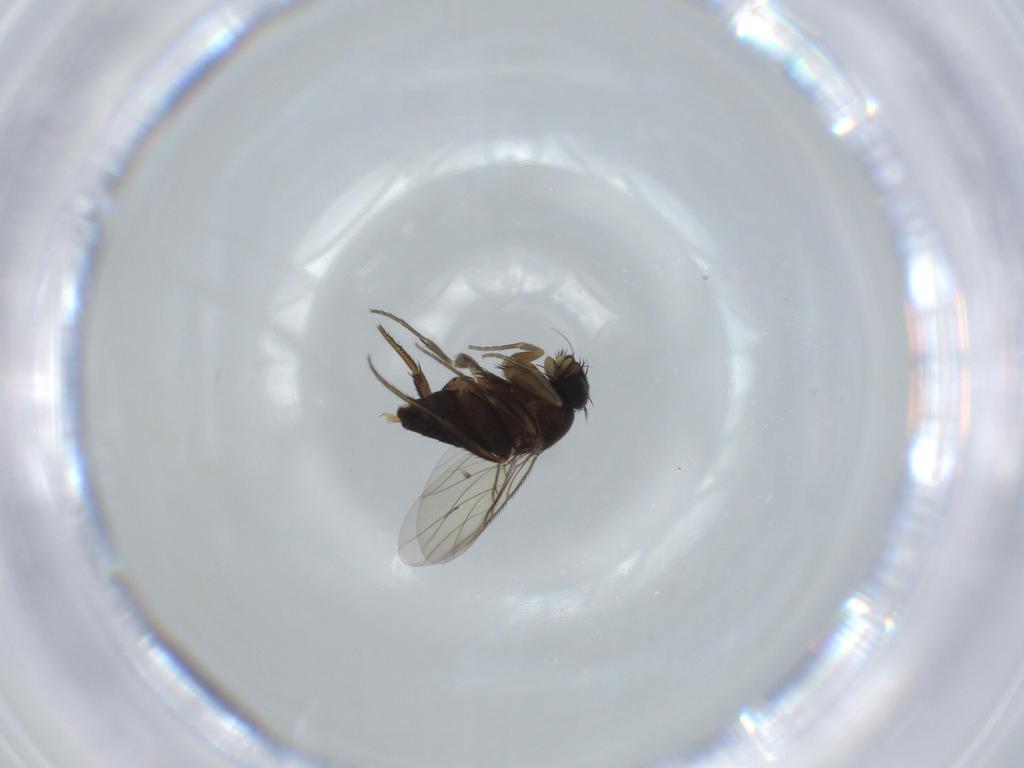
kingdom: Animalia
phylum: Arthropoda
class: Insecta
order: Diptera
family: Phoridae
